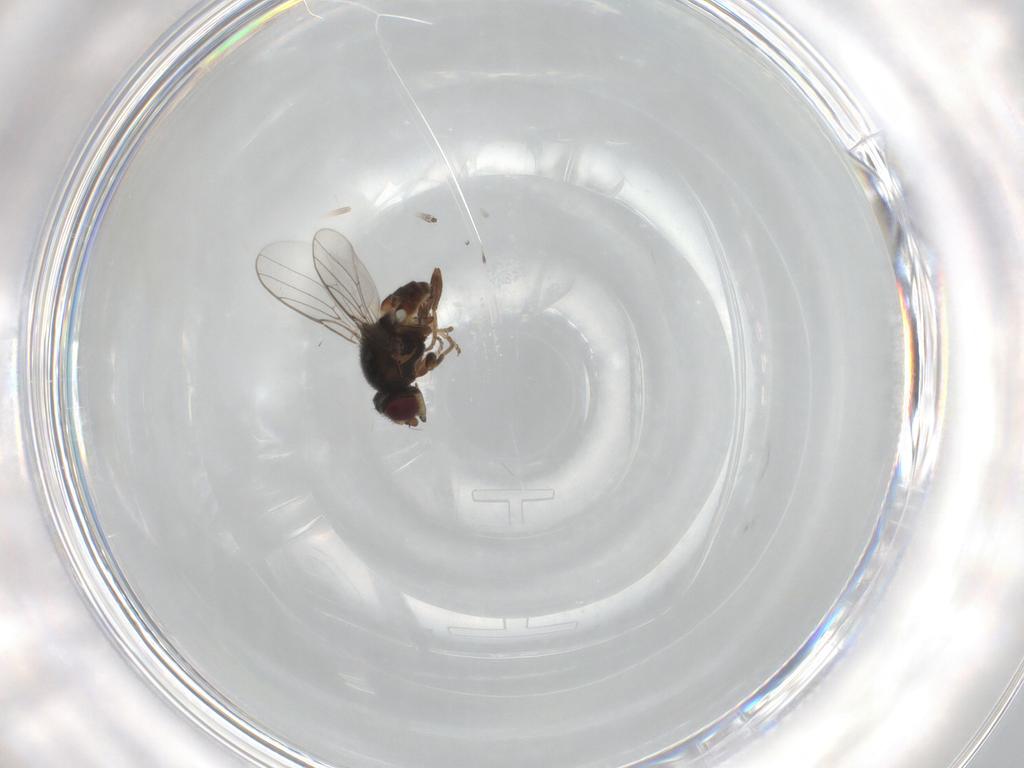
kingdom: Animalia
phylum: Arthropoda
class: Insecta
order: Diptera
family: Chloropidae
